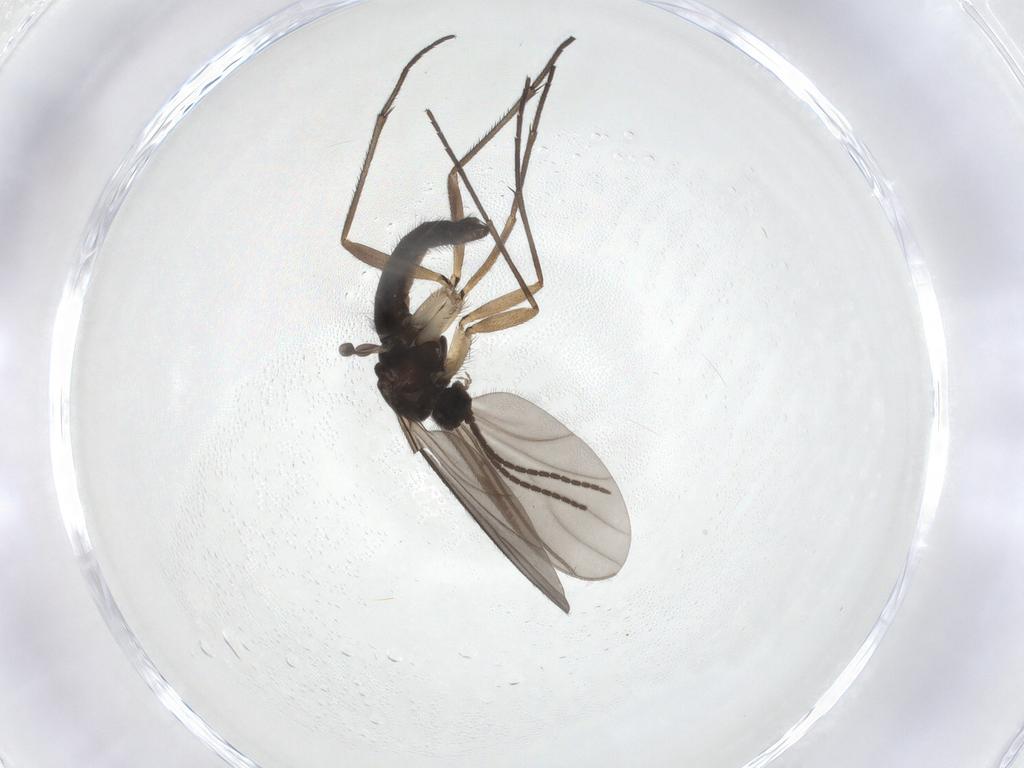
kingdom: Animalia
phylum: Arthropoda
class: Insecta
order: Diptera
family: Sciaridae
